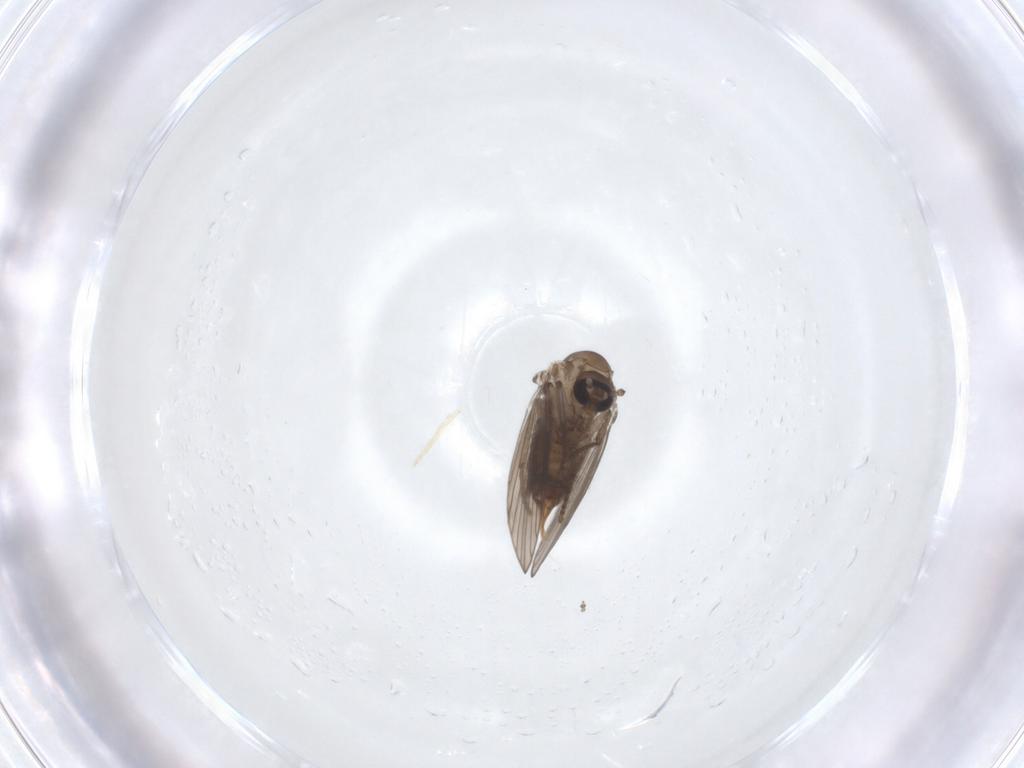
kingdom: Animalia
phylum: Arthropoda
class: Insecta
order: Diptera
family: Psychodidae
